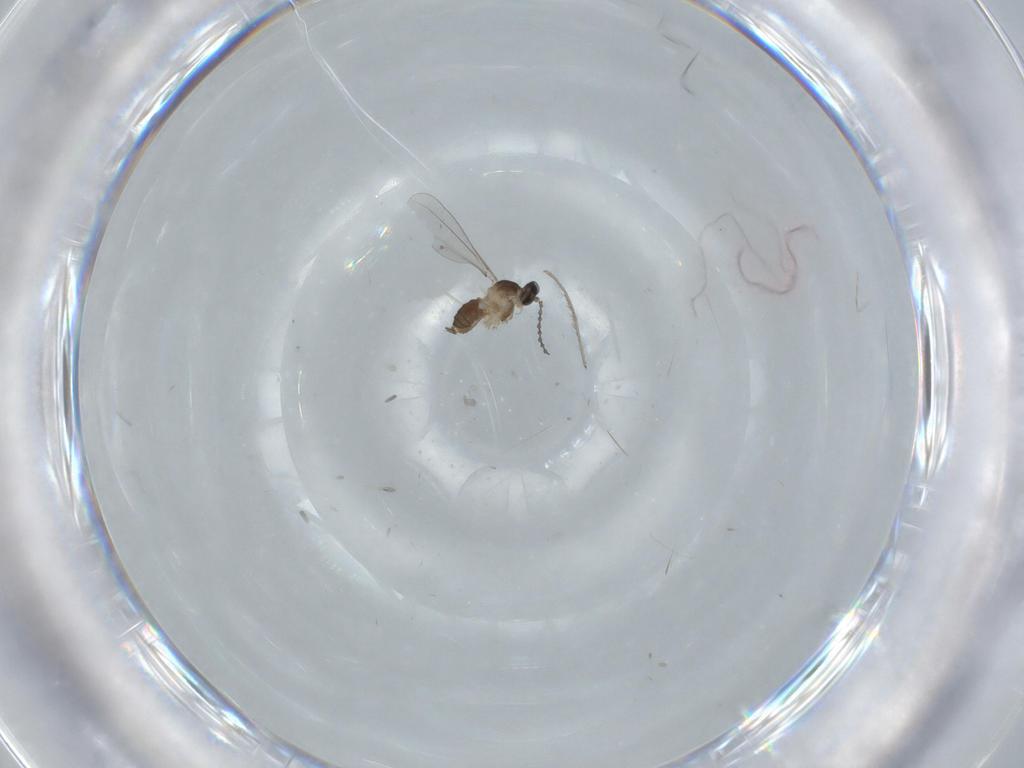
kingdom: Animalia
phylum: Arthropoda
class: Insecta
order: Diptera
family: Cecidomyiidae
